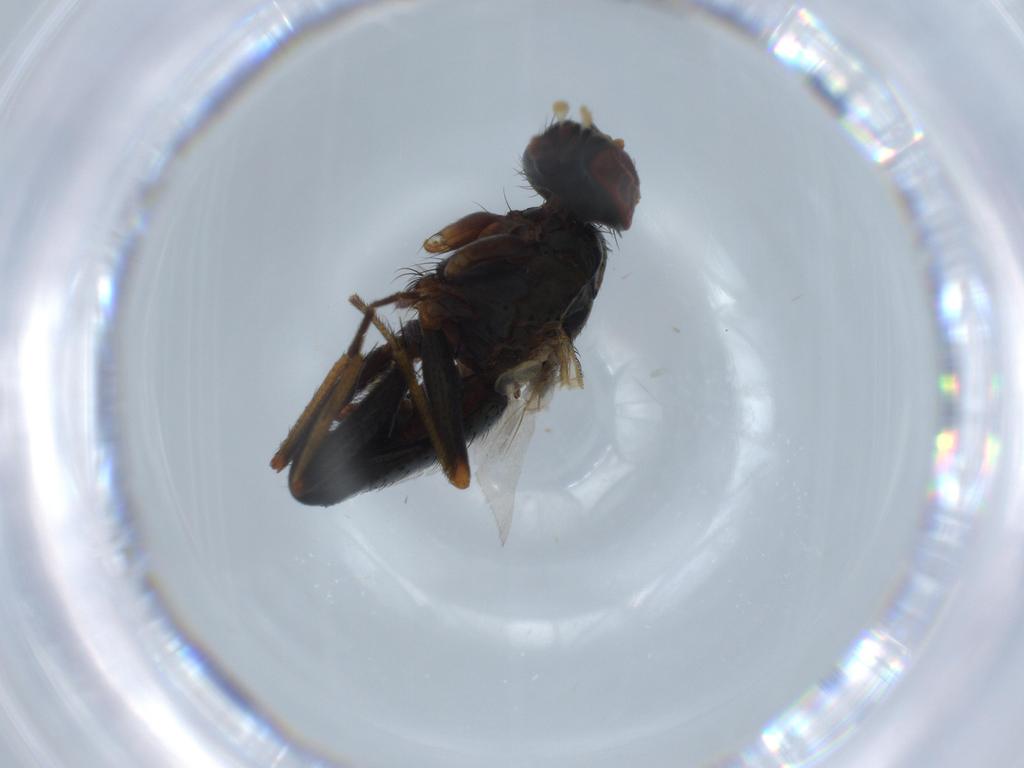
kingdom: Animalia
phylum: Arthropoda
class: Insecta
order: Diptera
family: Muscidae
